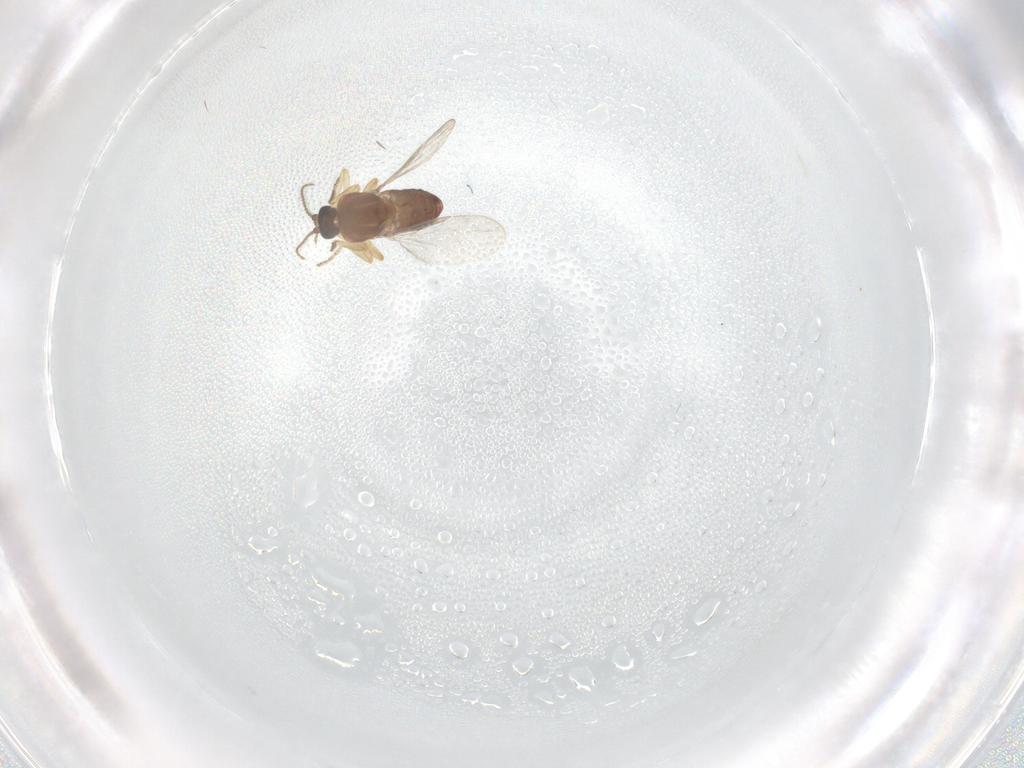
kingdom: Animalia
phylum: Arthropoda
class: Insecta
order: Diptera
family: Ceratopogonidae
